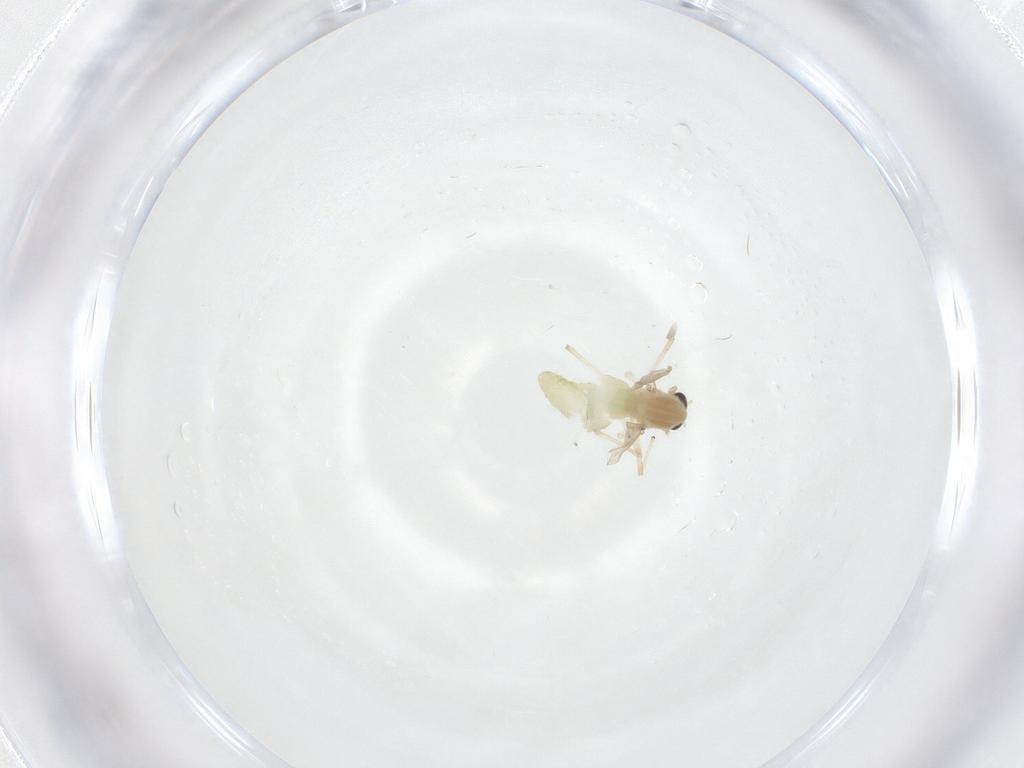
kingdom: Animalia
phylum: Arthropoda
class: Insecta
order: Diptera
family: Chironomidae
